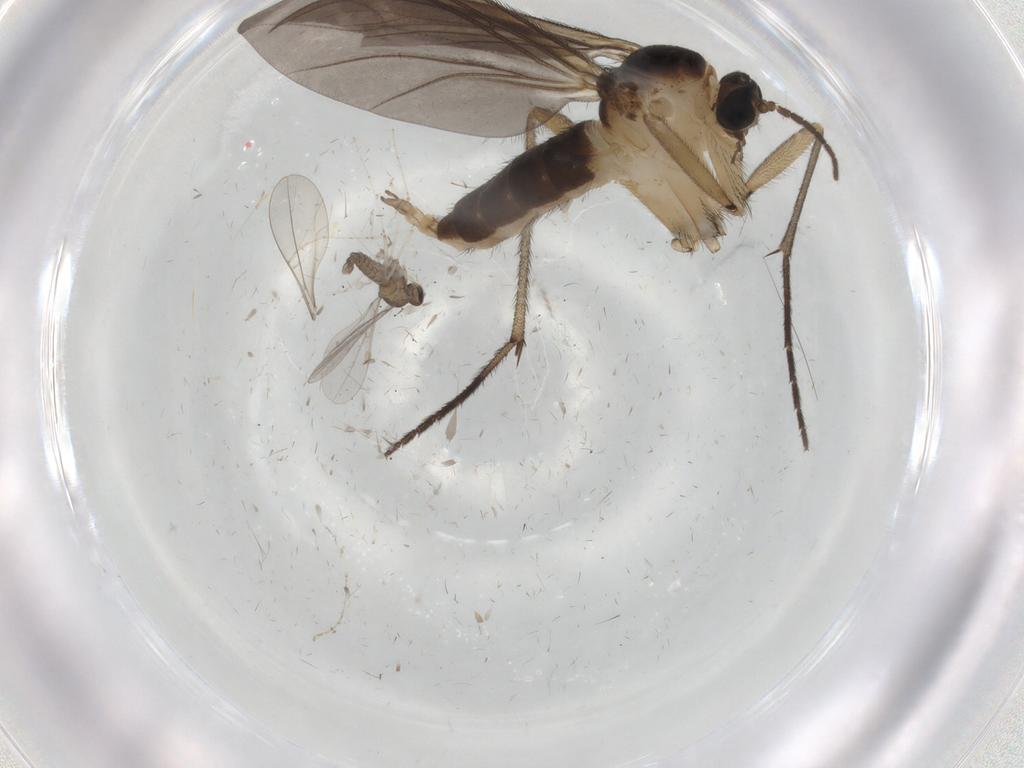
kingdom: Animalia
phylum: Arthropoda
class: Insecta
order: Diptera
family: Sciaridae
